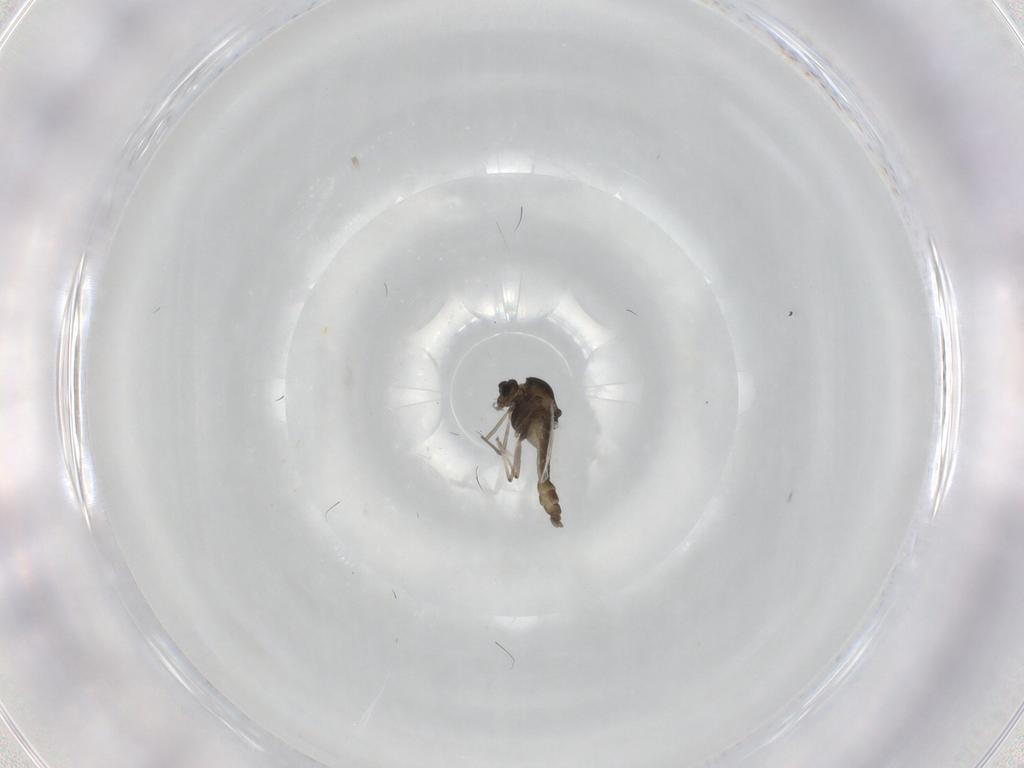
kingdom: Animalia
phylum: Arthropoda
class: Insecta
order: Diptera
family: Chironomidae
